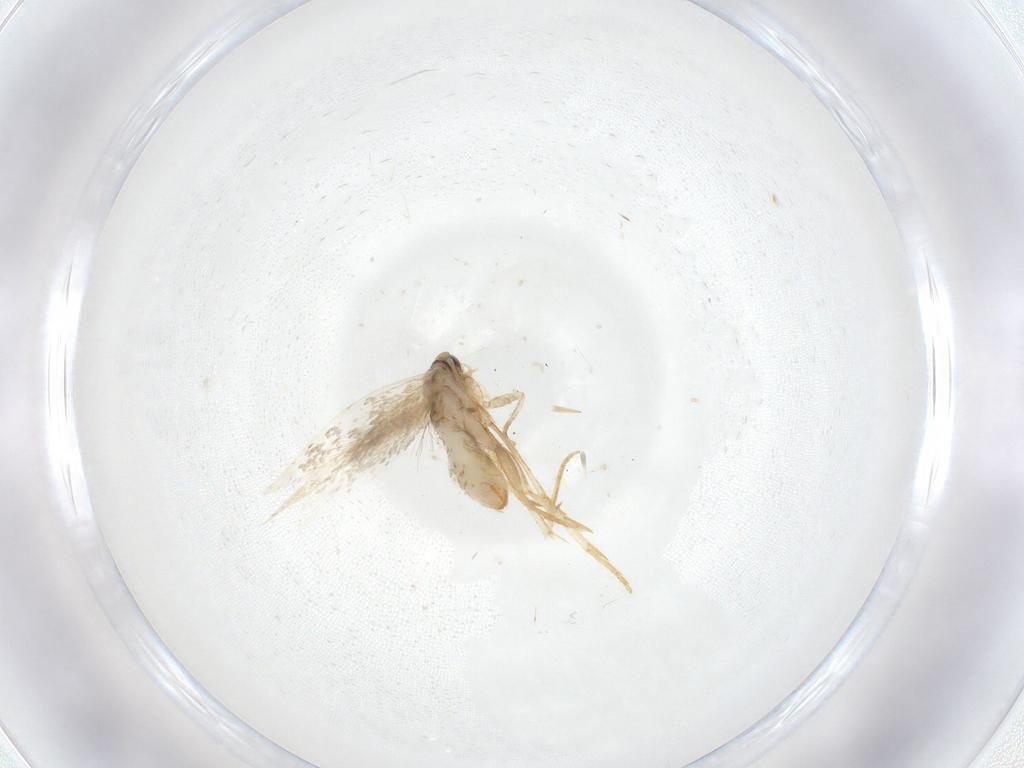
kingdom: Animalia
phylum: Arthropoda
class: Insecta
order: Lepidoptera
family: Nepticulidae
